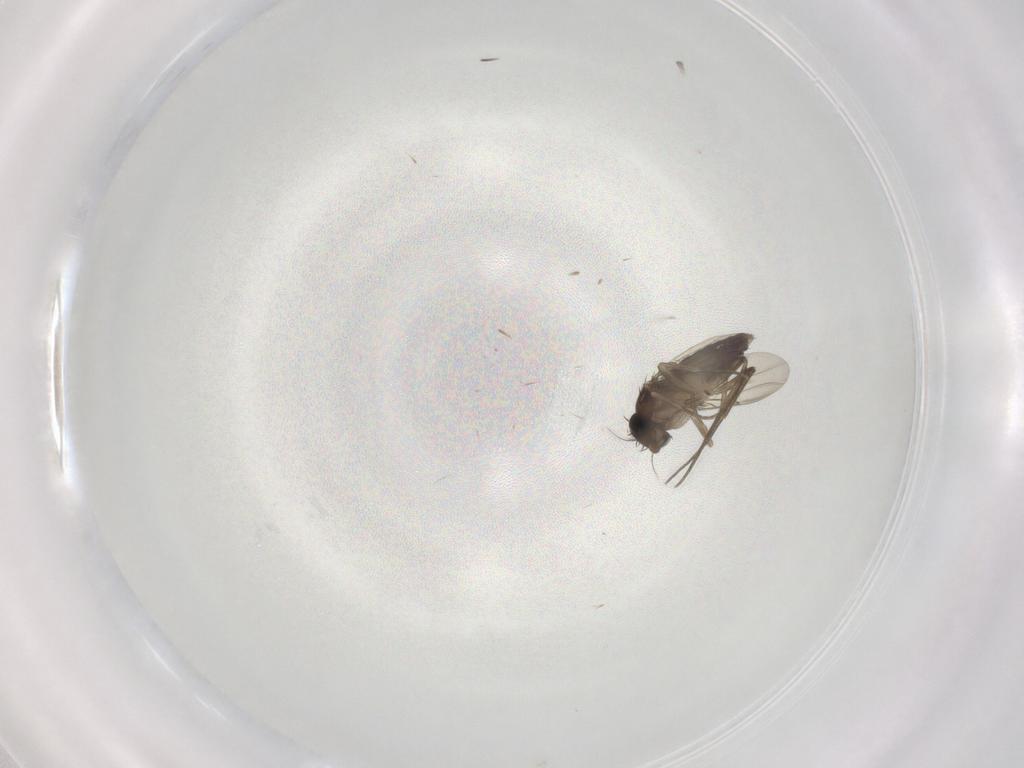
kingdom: Animalia
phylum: Arthropoda
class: Insecta
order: Diptera
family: Phoridae
